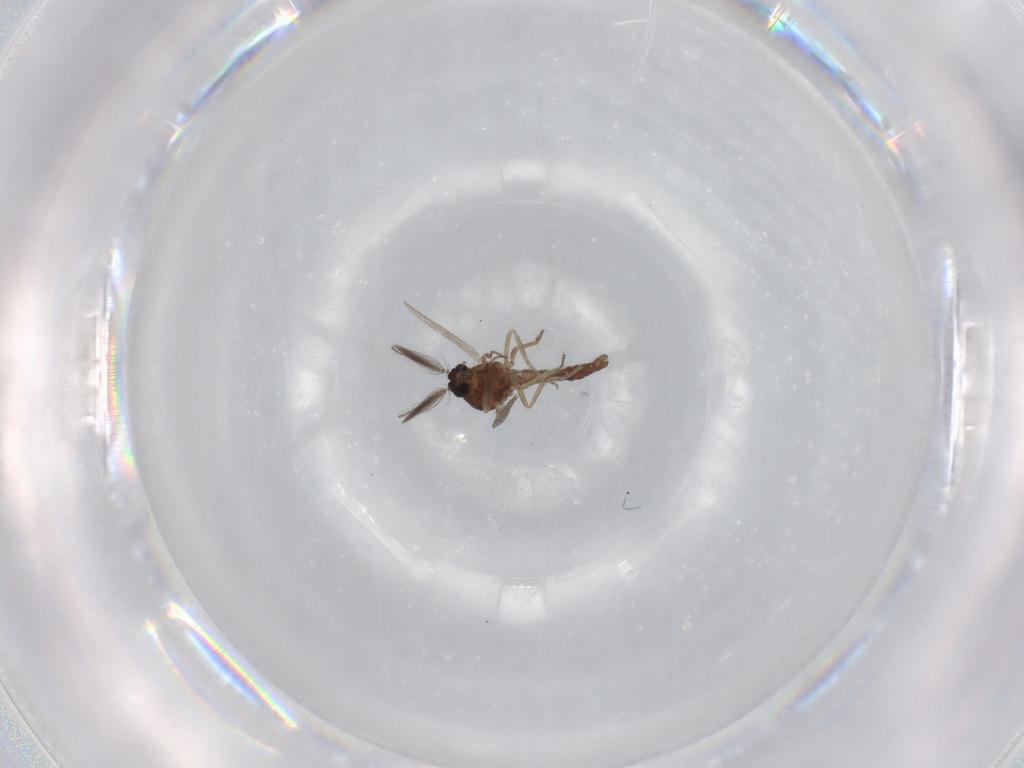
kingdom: Animalia
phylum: Arthropoda
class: Insecta
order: Diptera
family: Ceratopogonidae
